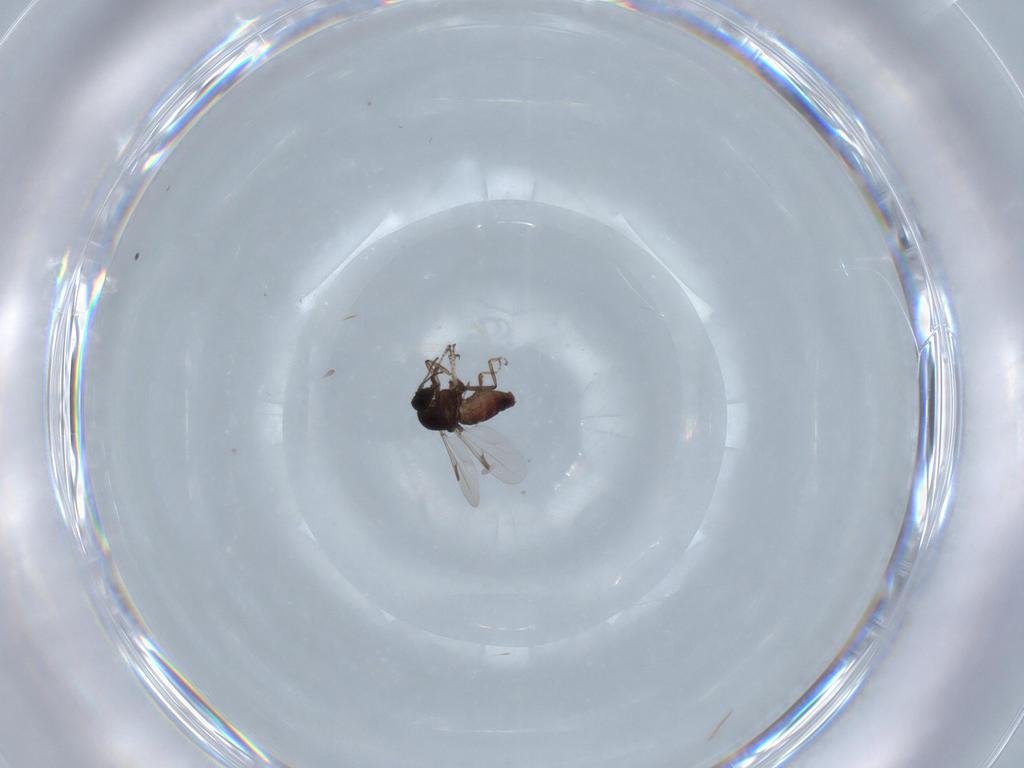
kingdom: Animalia
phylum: Arthropoda
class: Insecta
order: Diptera
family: Ceratopogonidae
